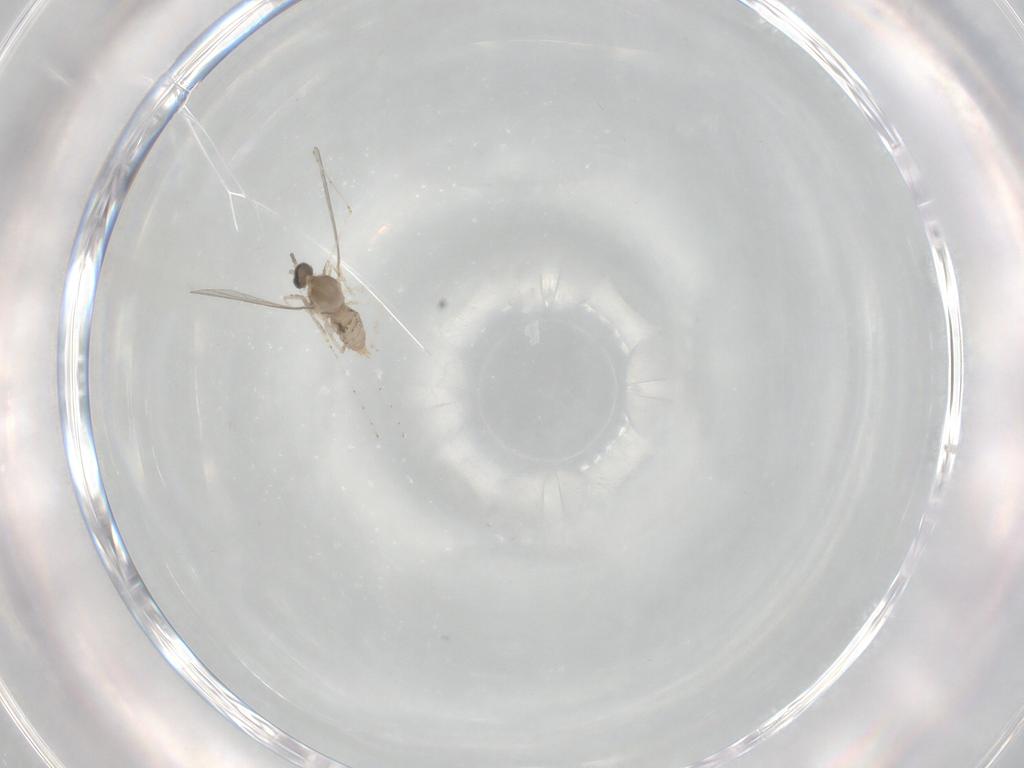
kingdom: Animalia
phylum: Arthropoda
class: Insecta
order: Diptera
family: Cecidomyiidae
